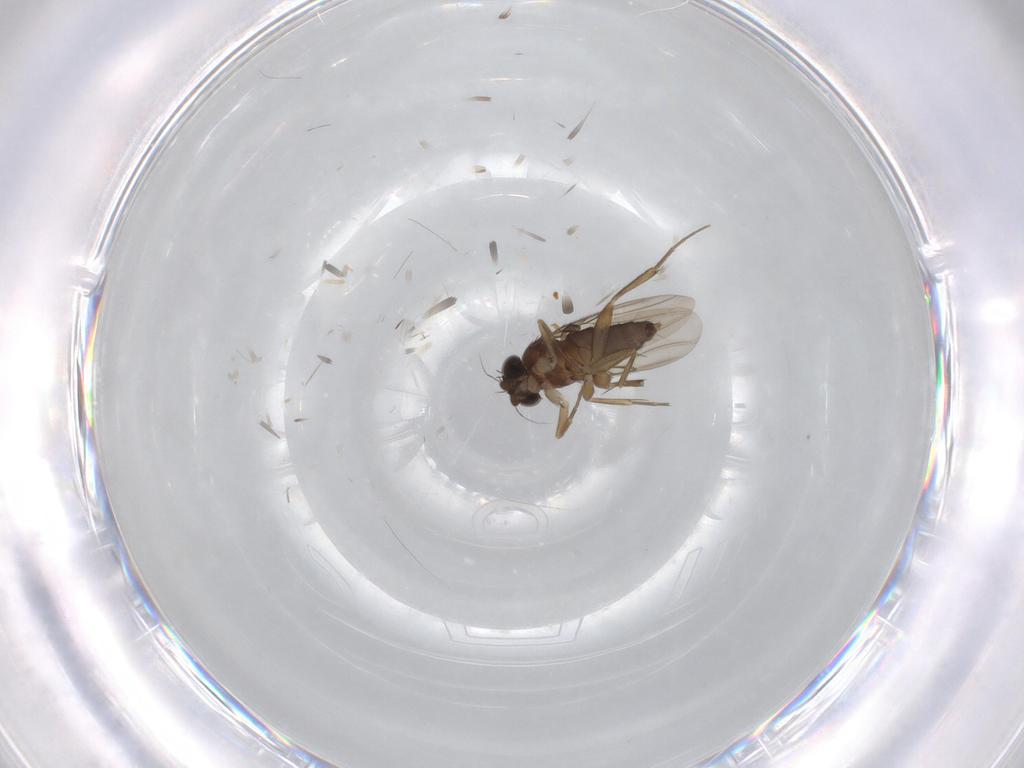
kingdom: Animalia
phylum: Arthropoda
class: Insecta
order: Diptera
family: Phoridae
